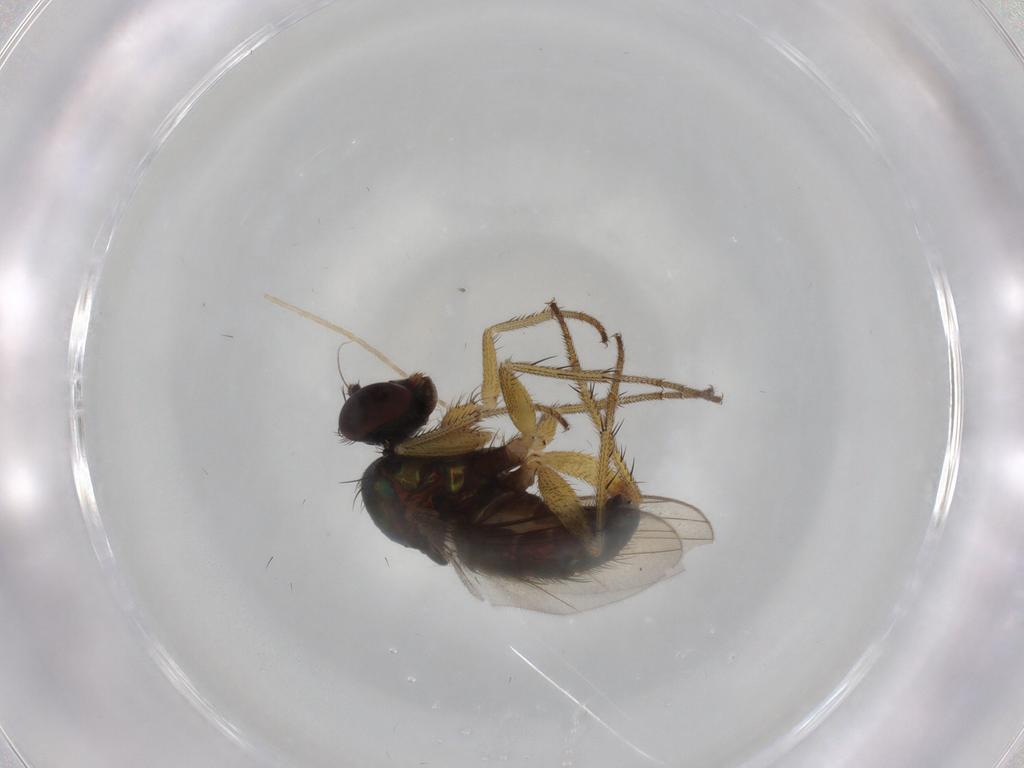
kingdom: Animalia
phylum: Arthropoda
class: Insecta
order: Diptera
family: Dolichopodidae
